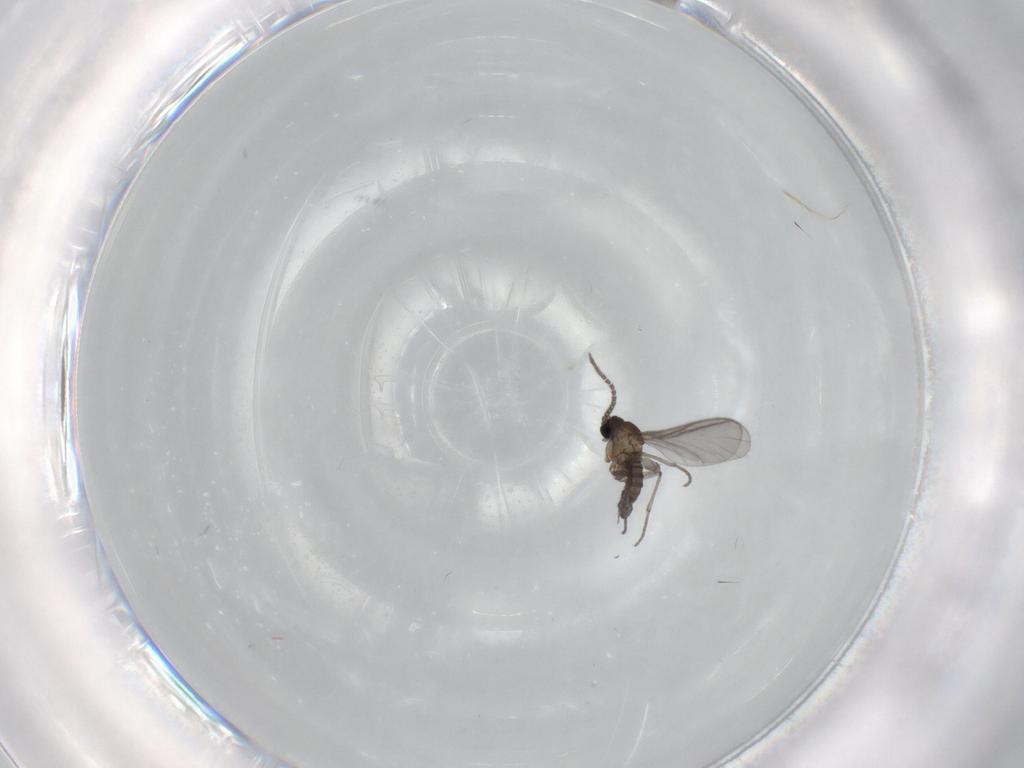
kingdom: Animalia
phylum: Arthropoda
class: Insecta
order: Diptera
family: Sciaridae
